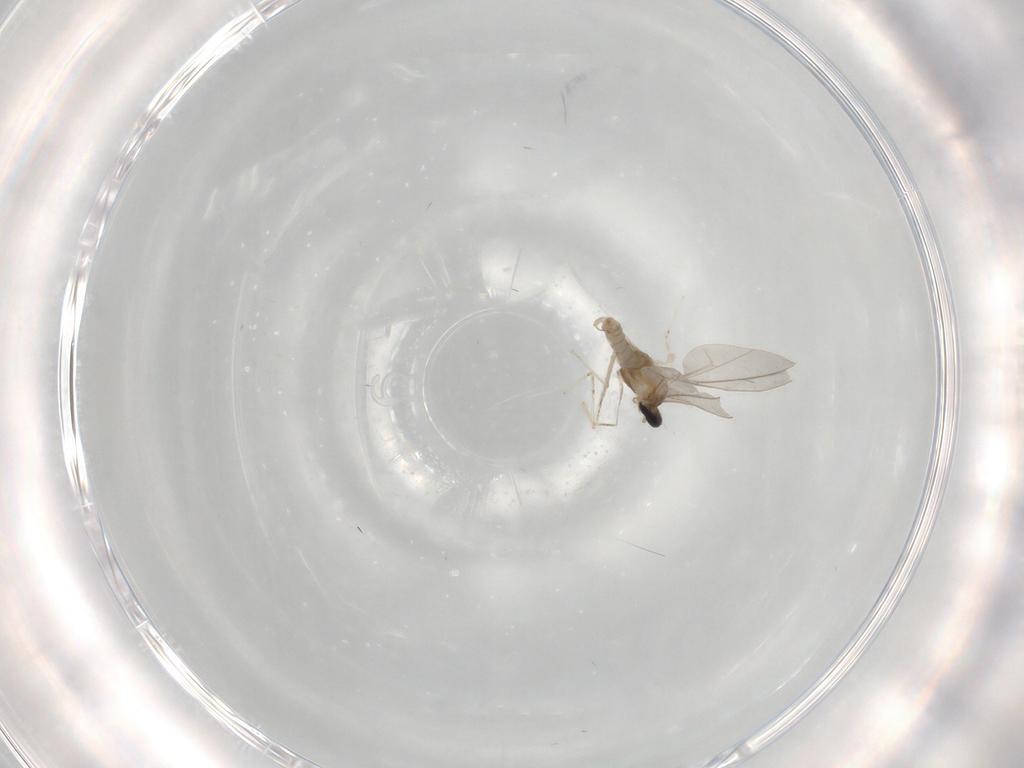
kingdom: Animalia
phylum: Arthropoda
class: Insecta
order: Diptera
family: Cecidomyiidae
